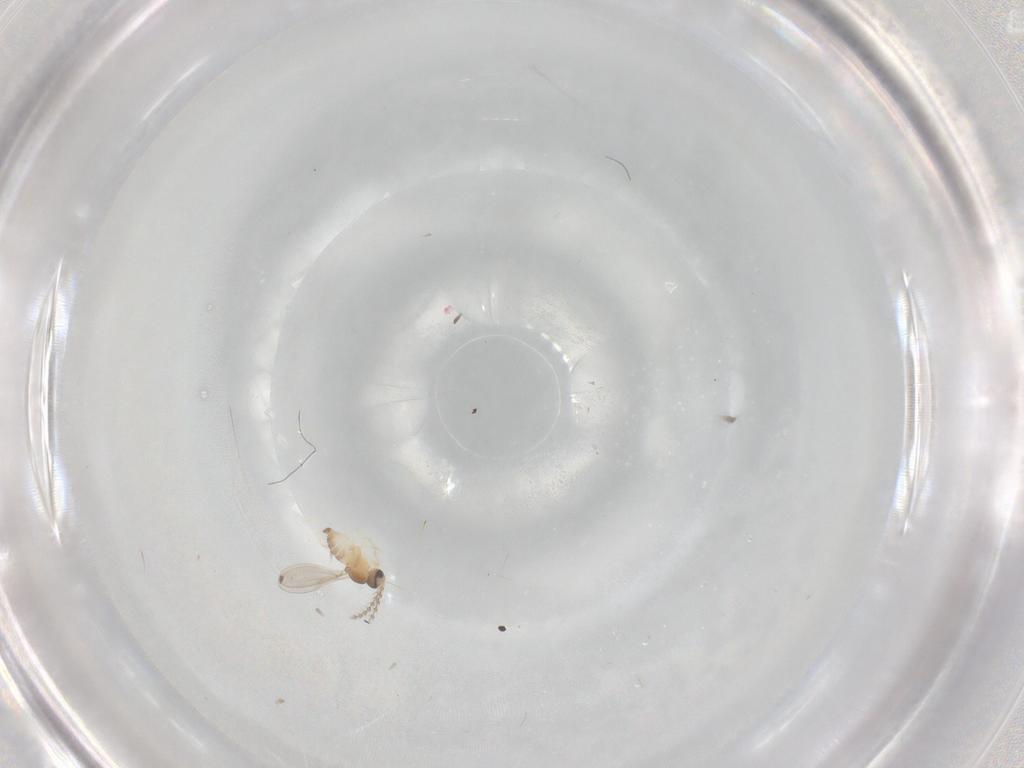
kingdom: Animalia
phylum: Arthropoda
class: Insecta
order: Diptera
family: Cecidomyiidae
